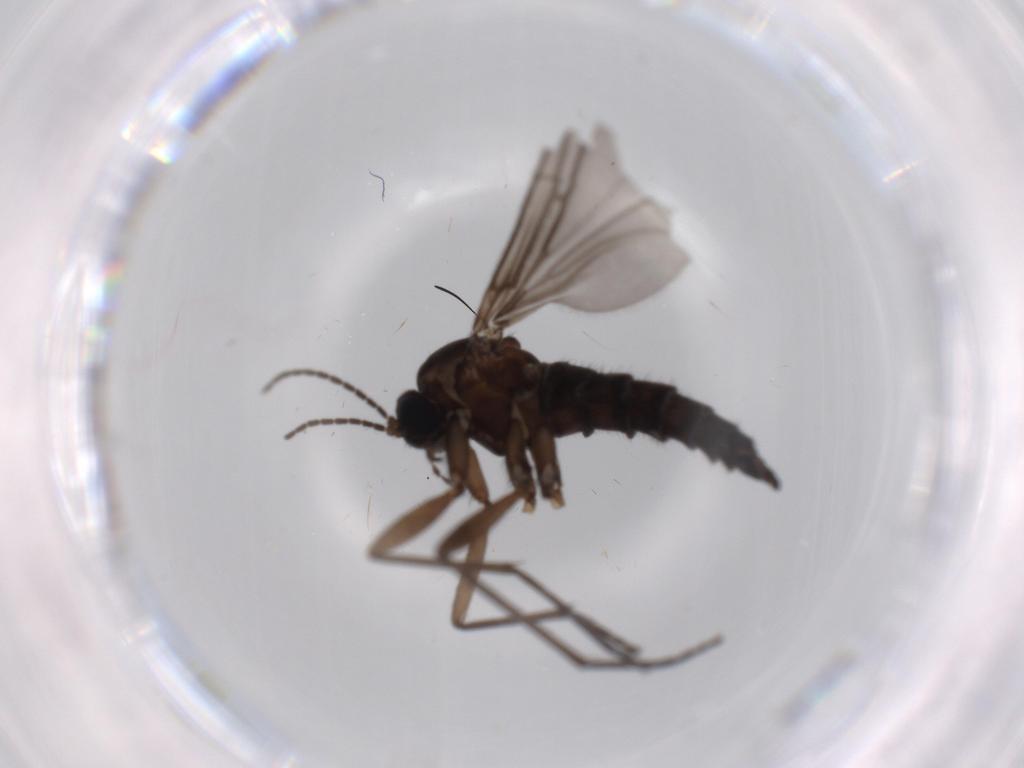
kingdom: Animalia
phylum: Arthropoda
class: Insecta
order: Diptera
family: Sciaridae
